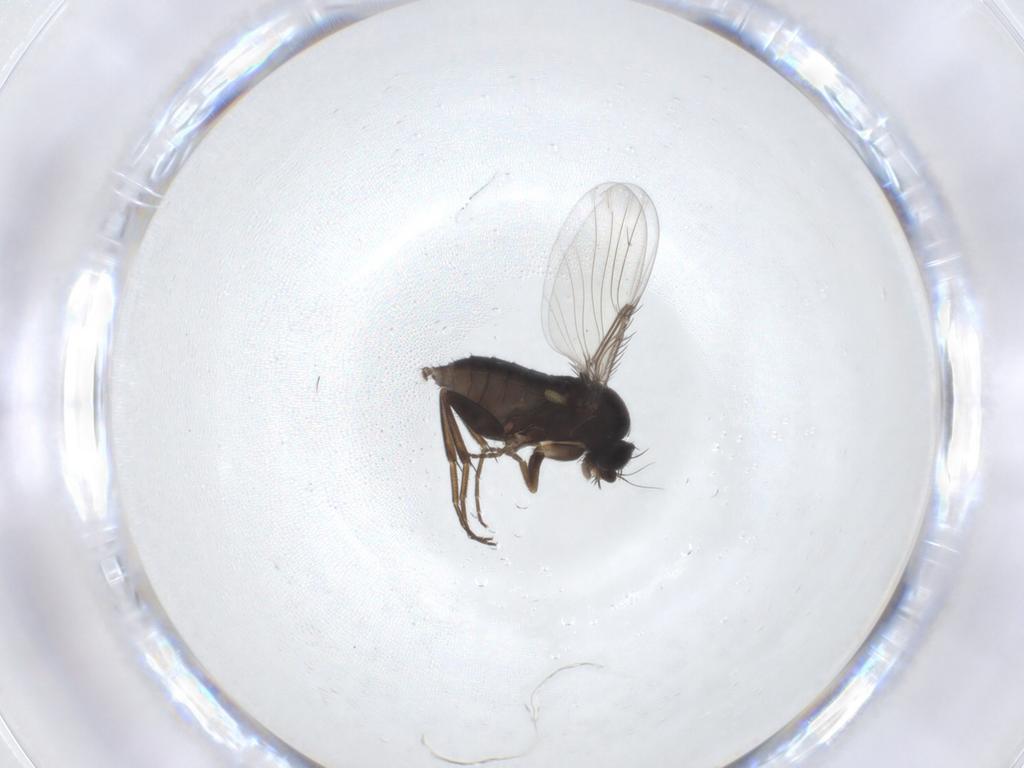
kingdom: Animalia
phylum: Arthropoda
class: Insecta
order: Diptera
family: Phoridae
